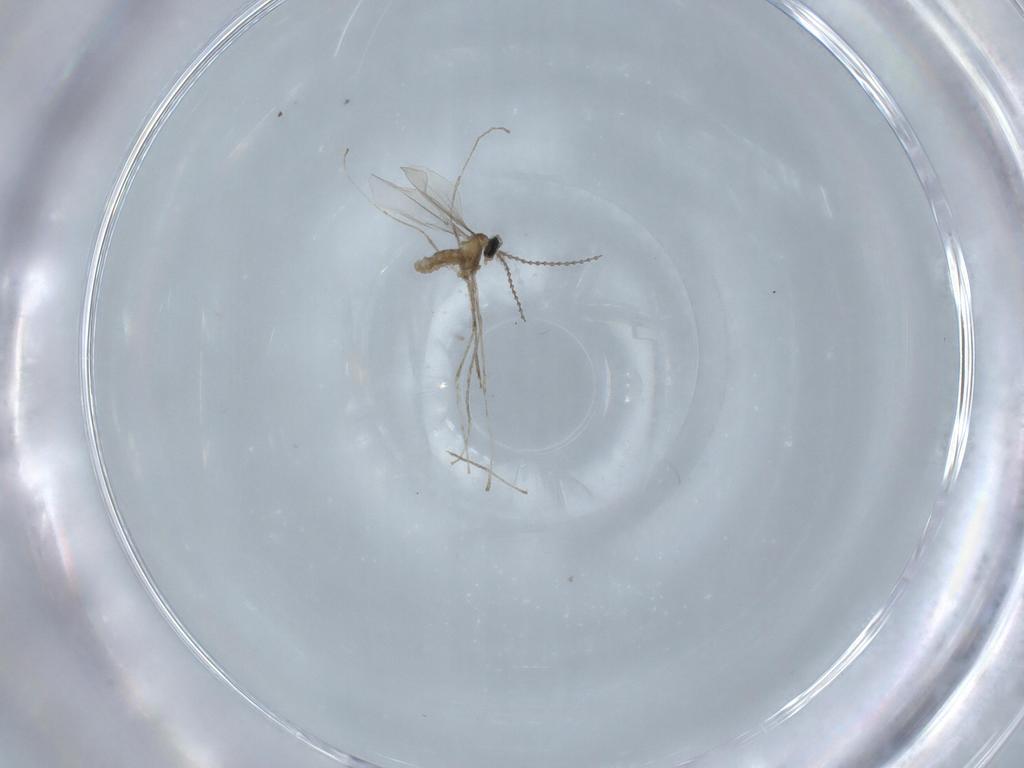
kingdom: Animalia
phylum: Arthropoda
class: Insecta
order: Diptera
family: Cecidomyiidae
